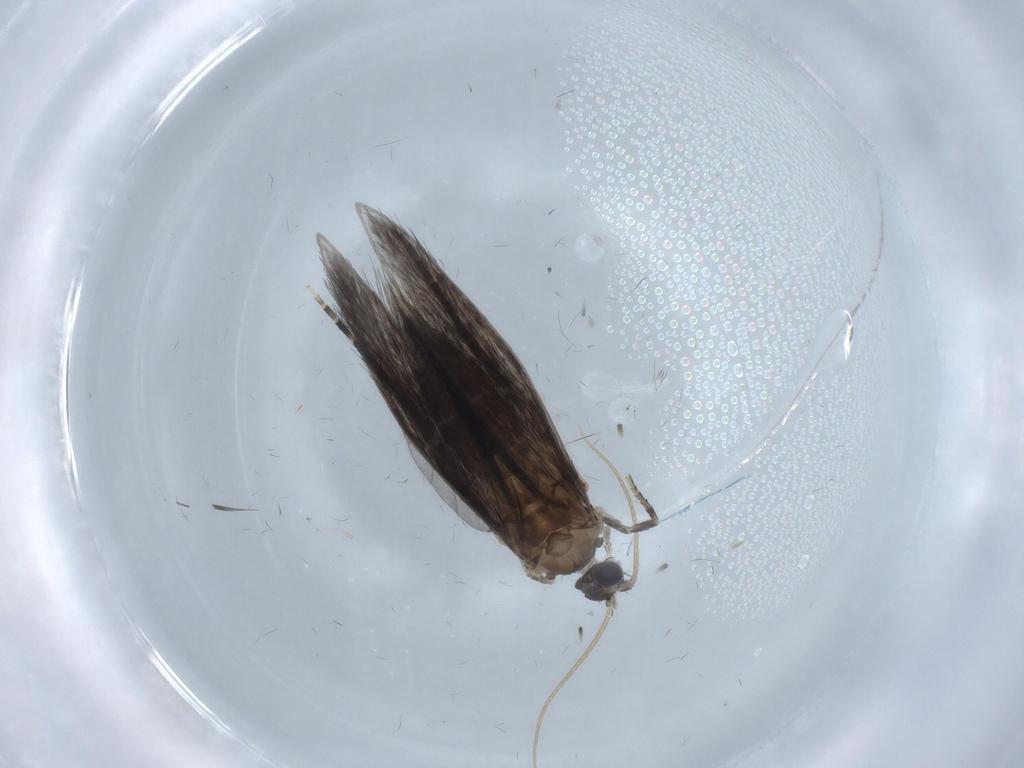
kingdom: Animalia
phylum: Arthropoda
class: Insecta
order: Trichoptera
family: Hydroptilidae
